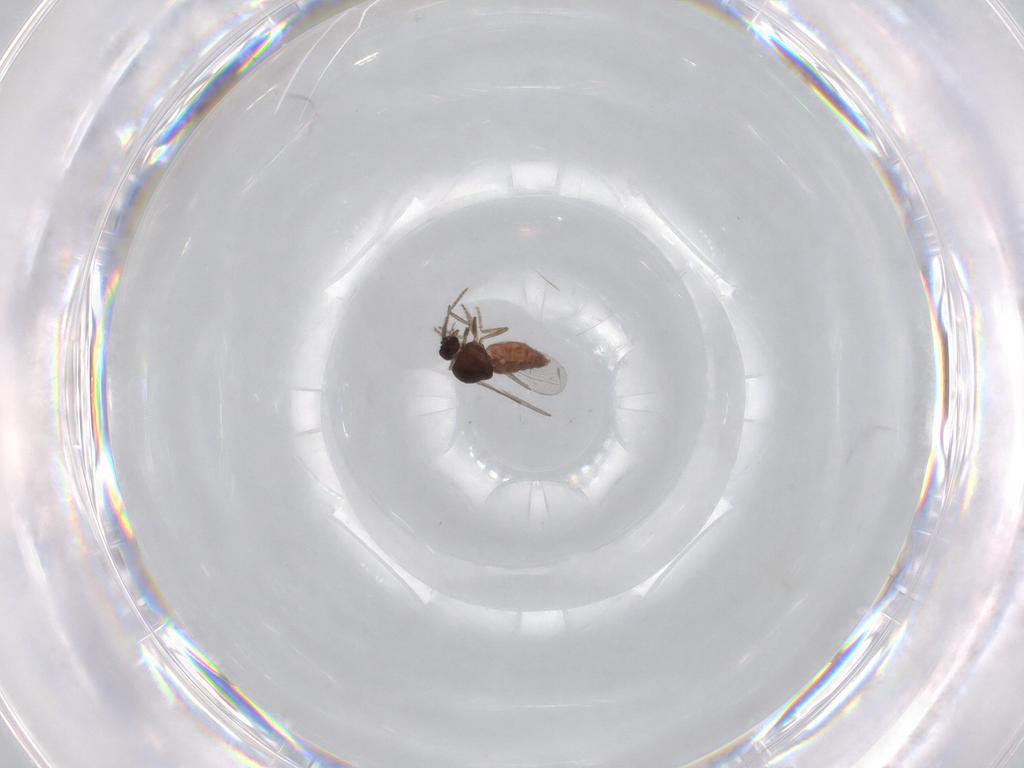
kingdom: Animalia
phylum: Arthropoda
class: Insecta
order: Diptera
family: Ceratopogonidae
